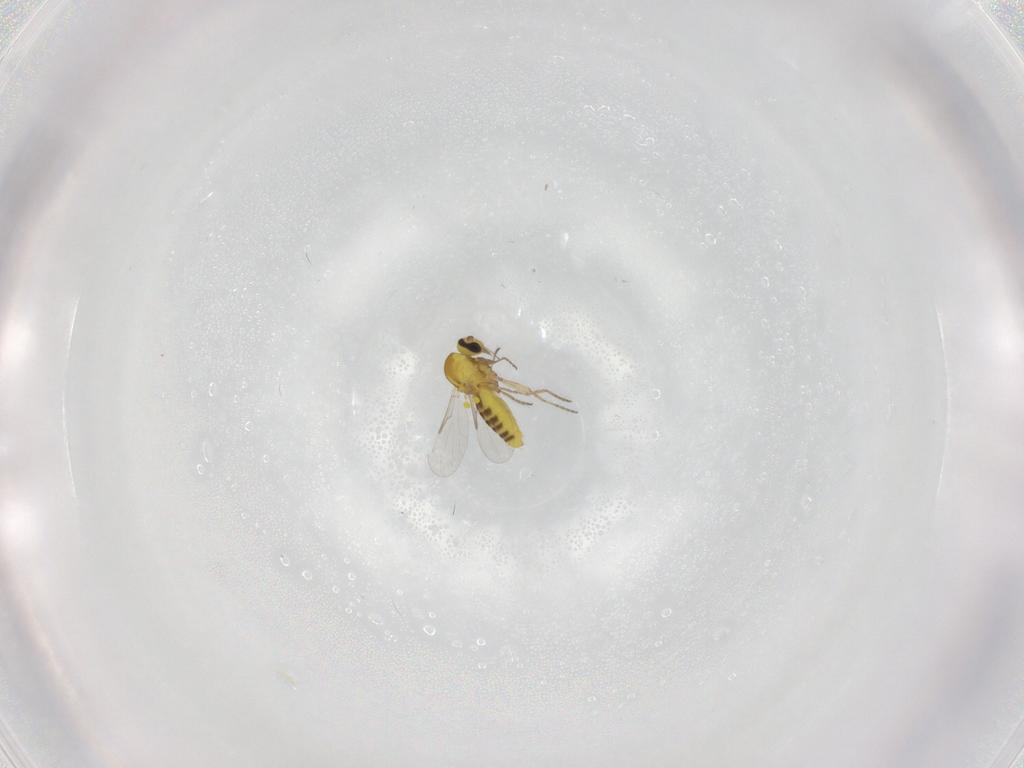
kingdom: Animalia
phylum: Arthropoda
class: Insecta
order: Diptera
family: Ceratopogonidae
